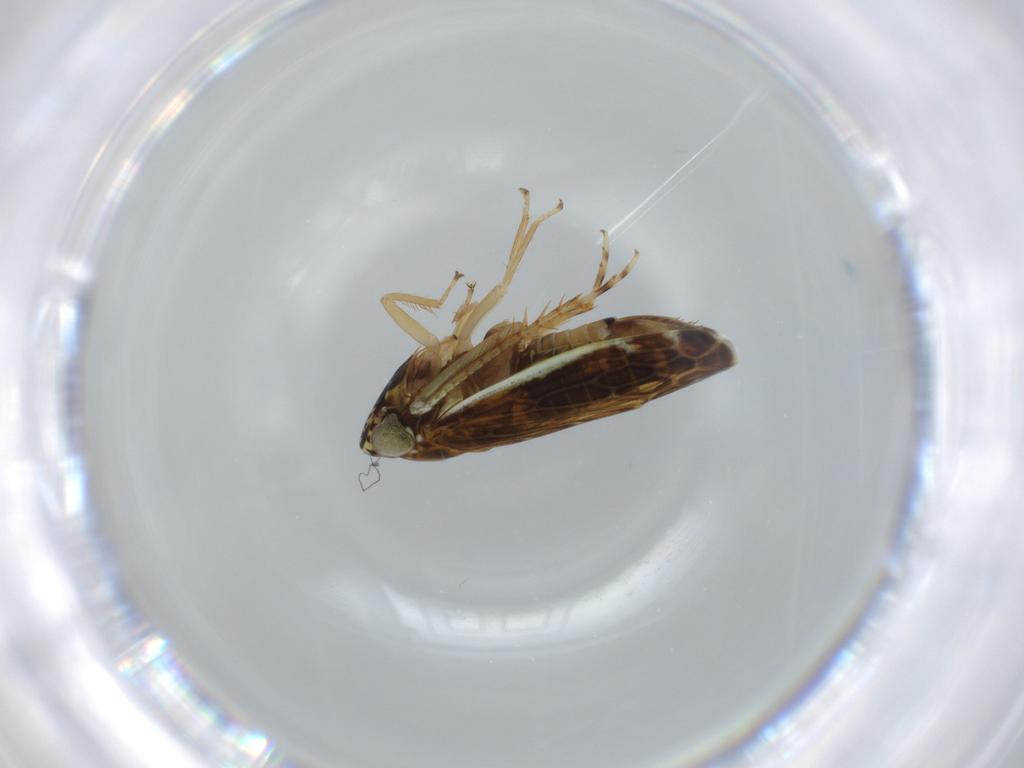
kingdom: Animalia
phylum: Arthropoda
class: Insecta
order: Hemiptera
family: Cicadellidae
